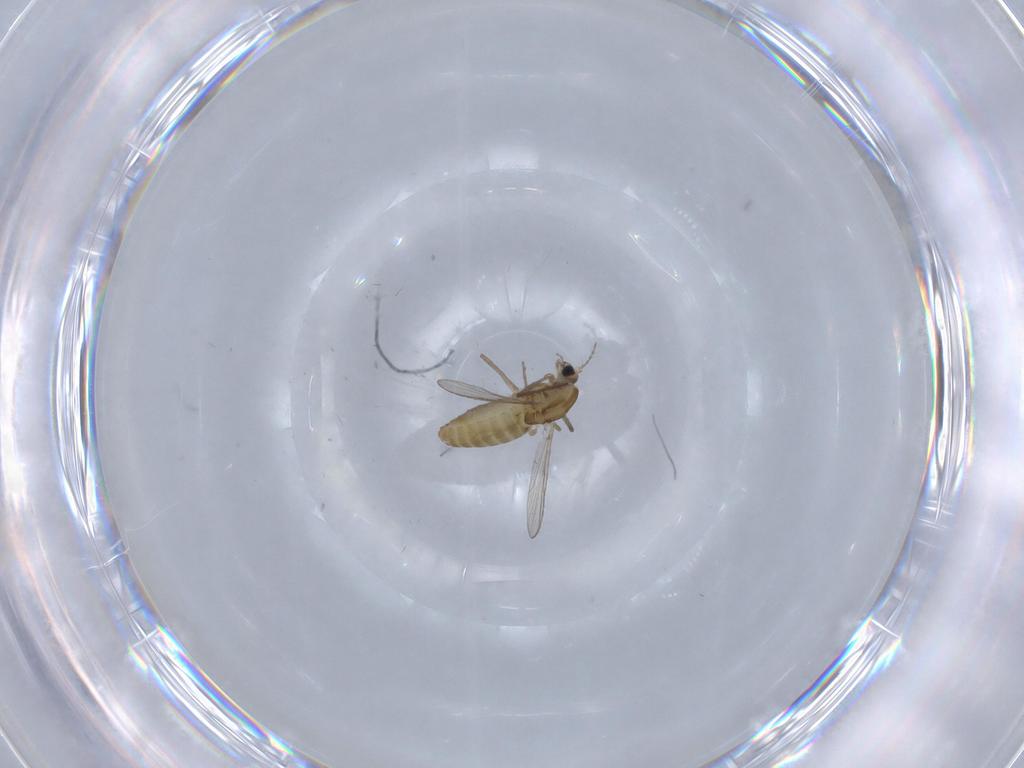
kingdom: Animalia
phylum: Arthropoda
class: Insecta
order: Diptera
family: Chironomidae
